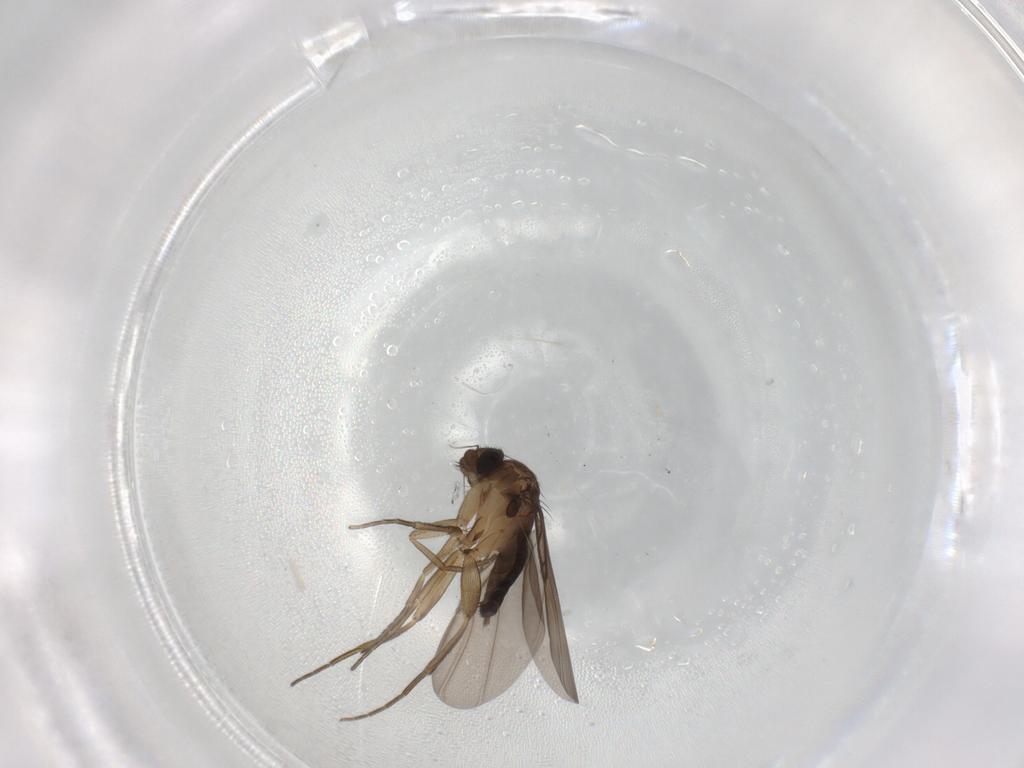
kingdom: Animalia
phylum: Arthropoda
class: Insecta
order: Diptera
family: Phoridae
